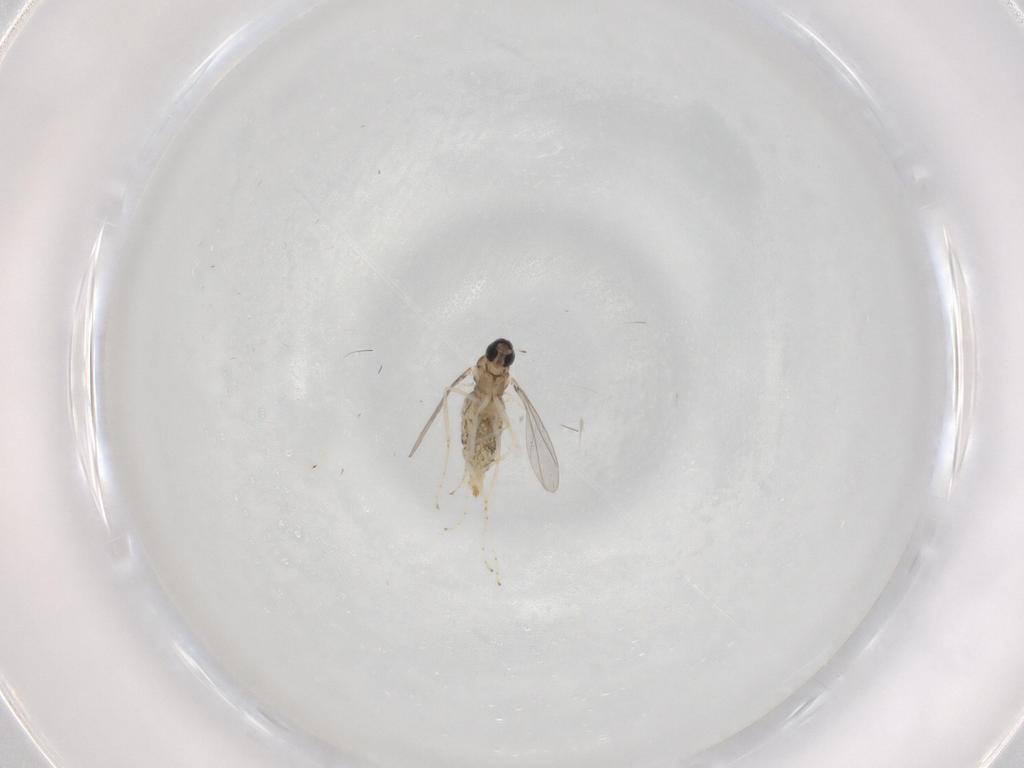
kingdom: Animalia
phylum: Arthropoda
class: Insecta
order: Diptera
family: Cecidomyiidae
